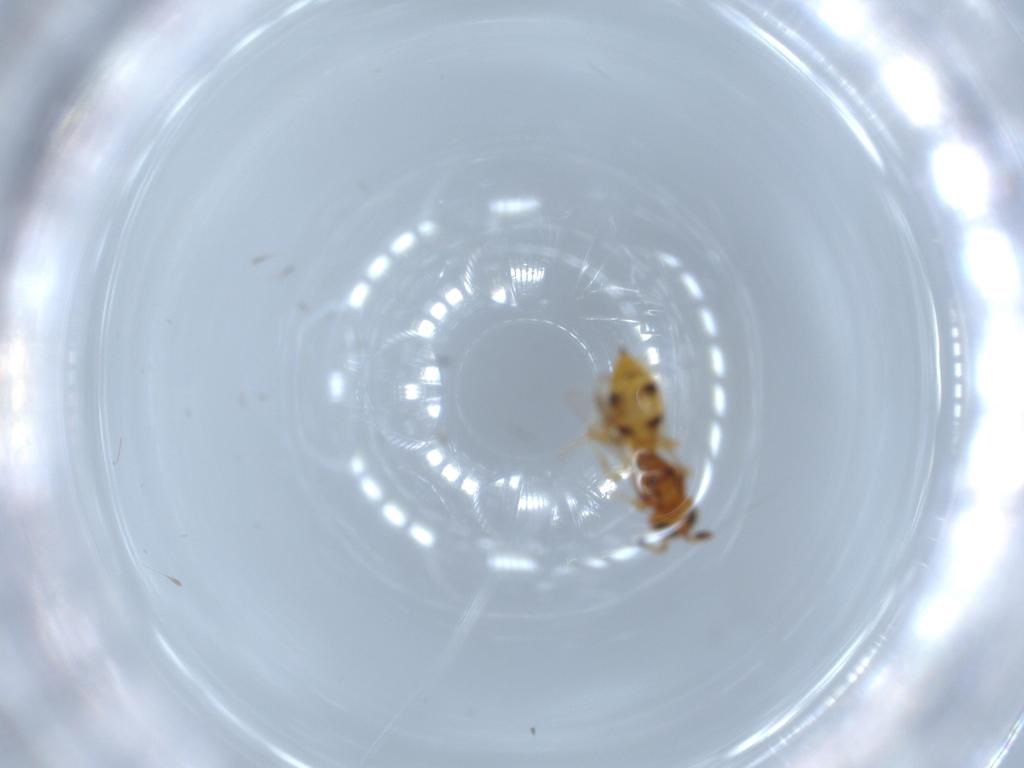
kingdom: Animalia
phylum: Arthropoda
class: Insecta
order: Hymenoptera
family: Scelionidae
